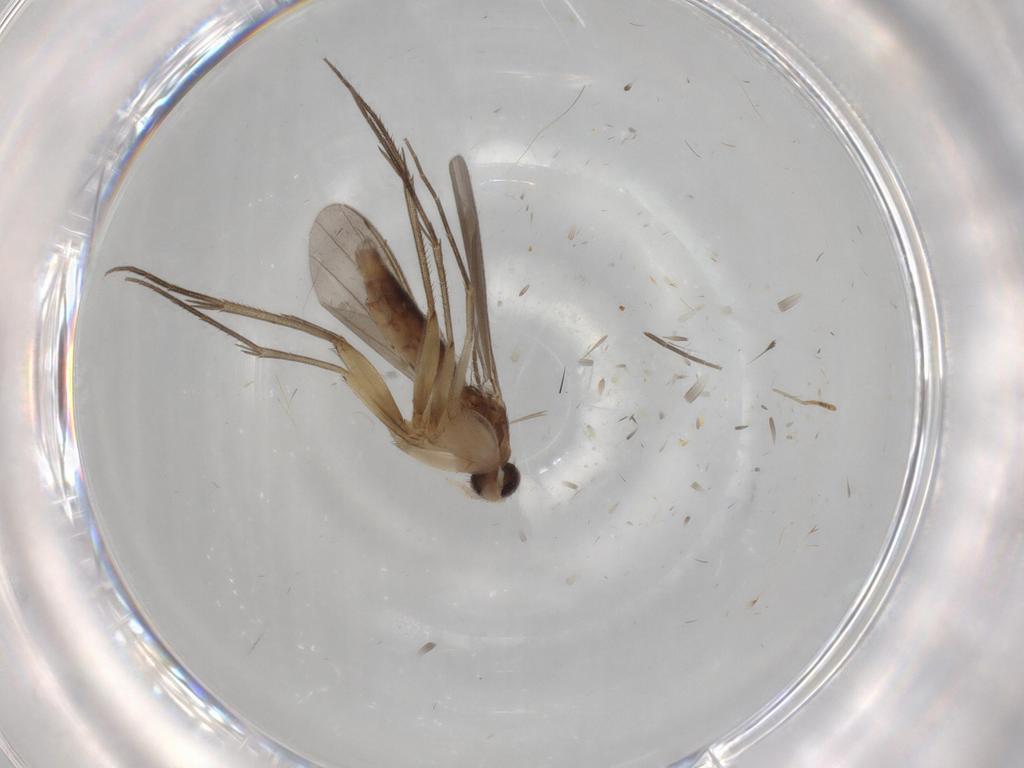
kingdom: Animalia
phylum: Arthropoda
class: Insecta
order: Diptera
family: Mycetophilidae
